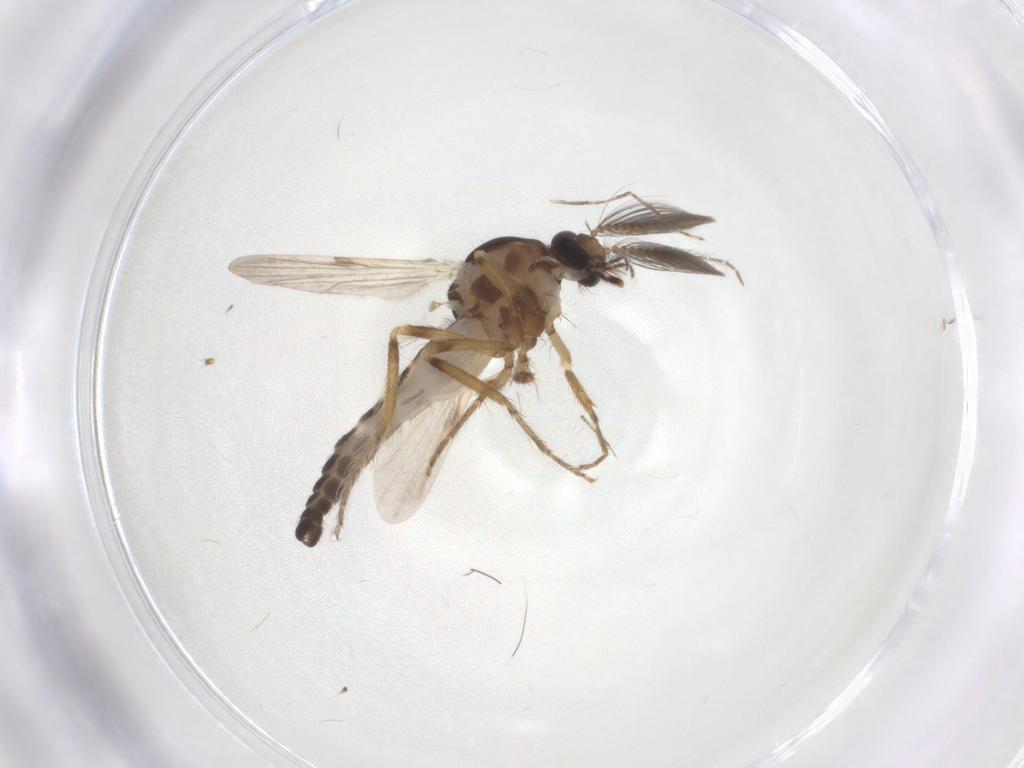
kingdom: Animalia
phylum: Arthropoda
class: Insecta
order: Diptera
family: Ceratopogonidae
